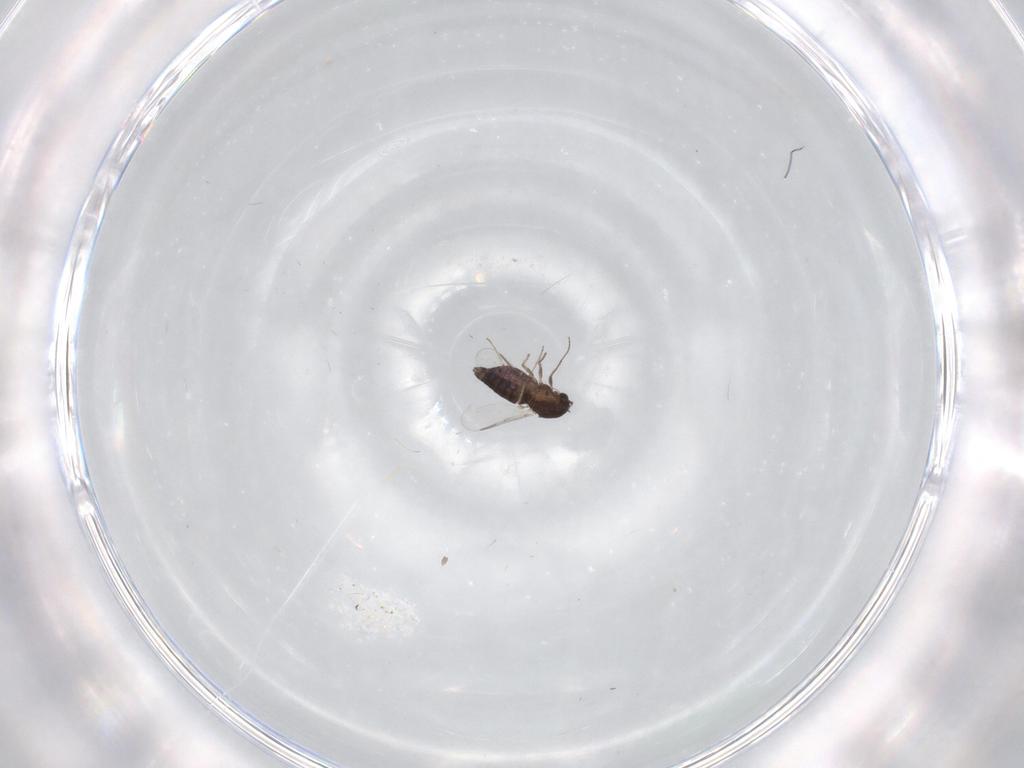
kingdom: Animalia
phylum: Arthropoda
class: Insecta
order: Diptera
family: Chironomidae
